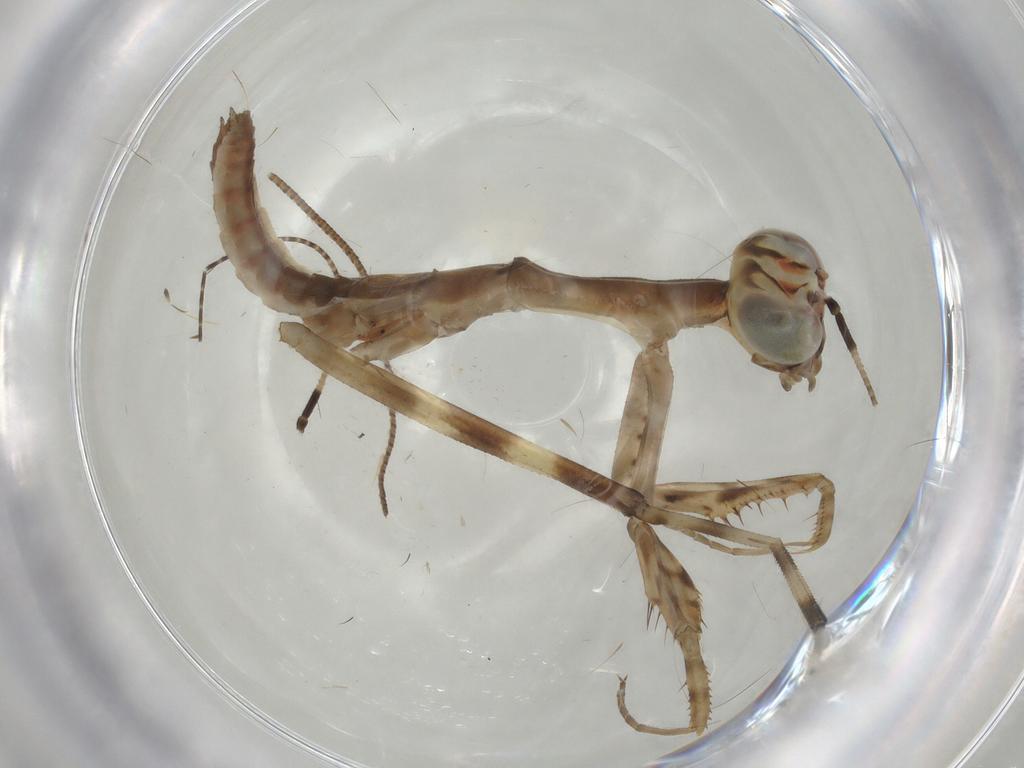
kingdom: Animalia
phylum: Arthropoda
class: Insecta
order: Mantodea
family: Miomantidae
